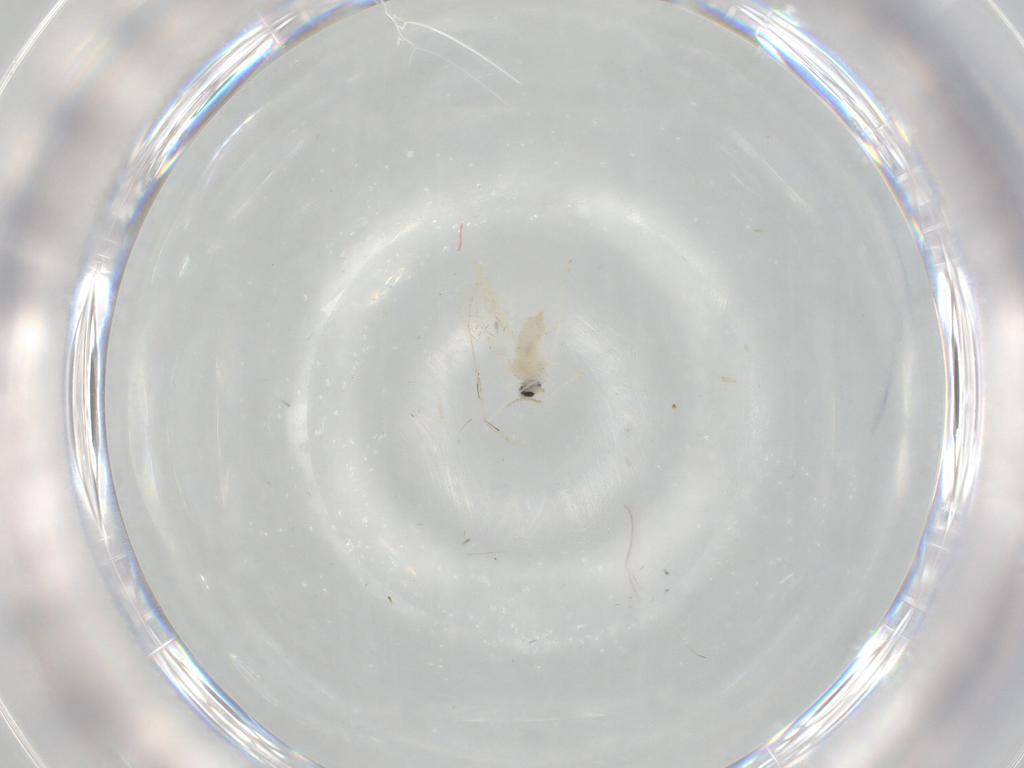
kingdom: Animalia
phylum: Arthropoda
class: Insecta
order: Diptera
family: Cecidomyiidae
